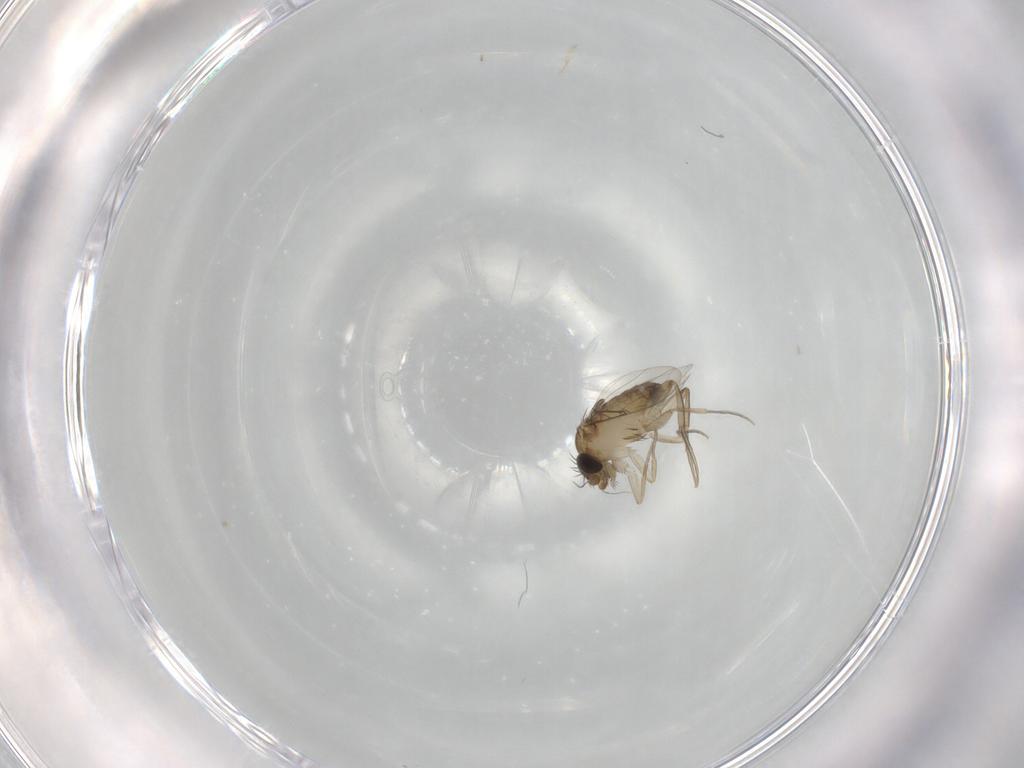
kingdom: Animalia
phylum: Arthropoda
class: Insecta
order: Diptera
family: Phoridae
